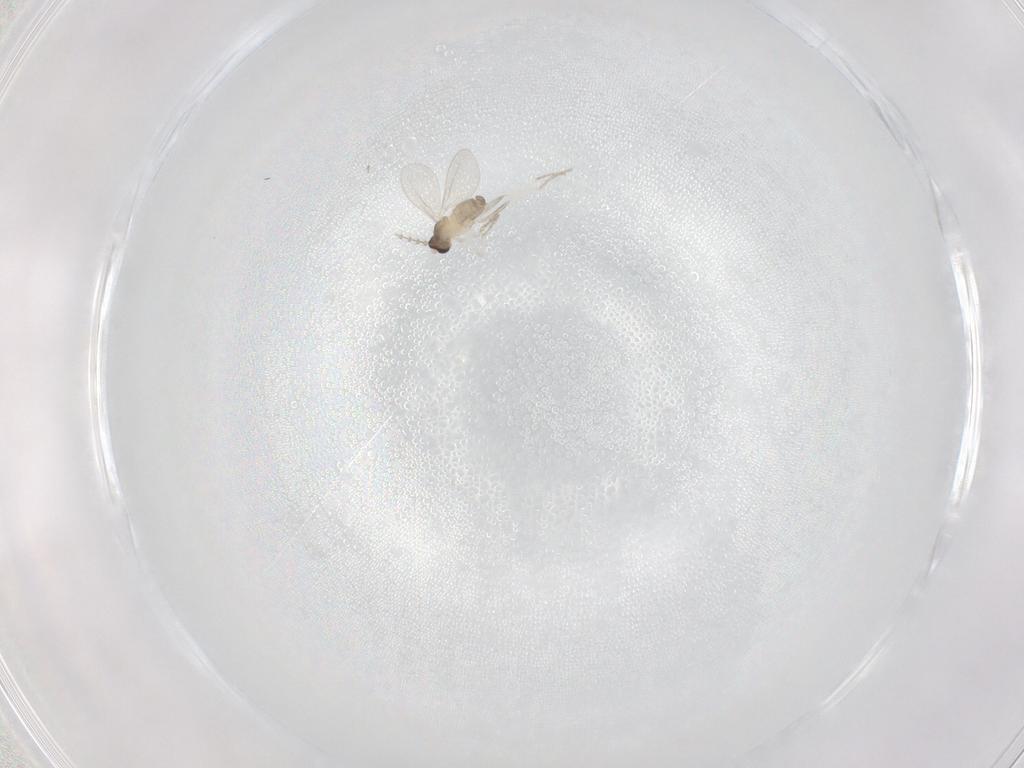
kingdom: Animalia
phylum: Arthropoda
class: Insecta
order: Diptera
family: Cecidomyiidae
